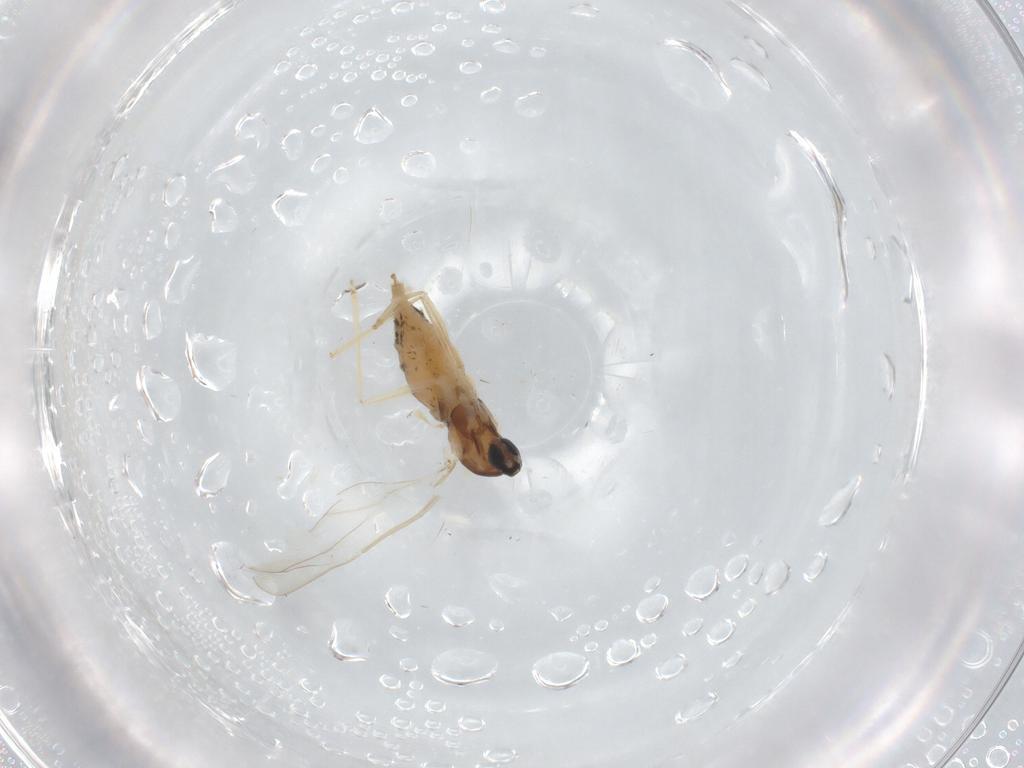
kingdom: Animalia
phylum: Arthropoda
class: Insecta
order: Diptera
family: Cecidomyiidae
